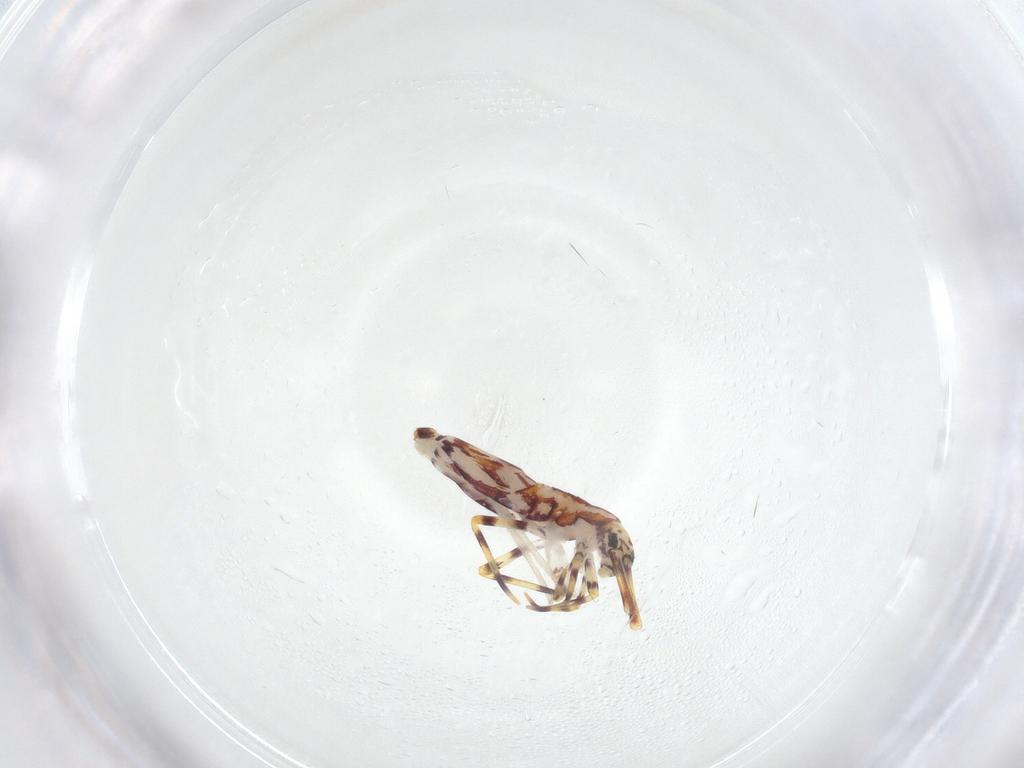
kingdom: Animalia
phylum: Arthropoda
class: Collembola
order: Entomobryomorpha
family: Entomobryidae
